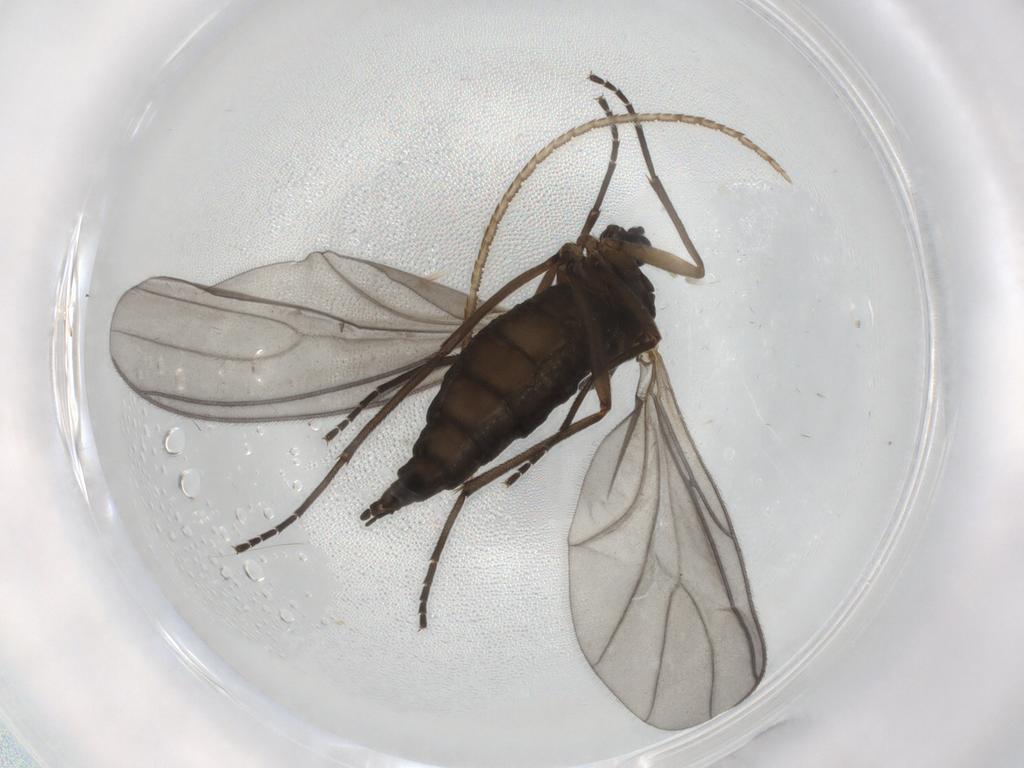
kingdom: Animalia
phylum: Arthropoda
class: Insecta
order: Diptera
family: Sciaridae
